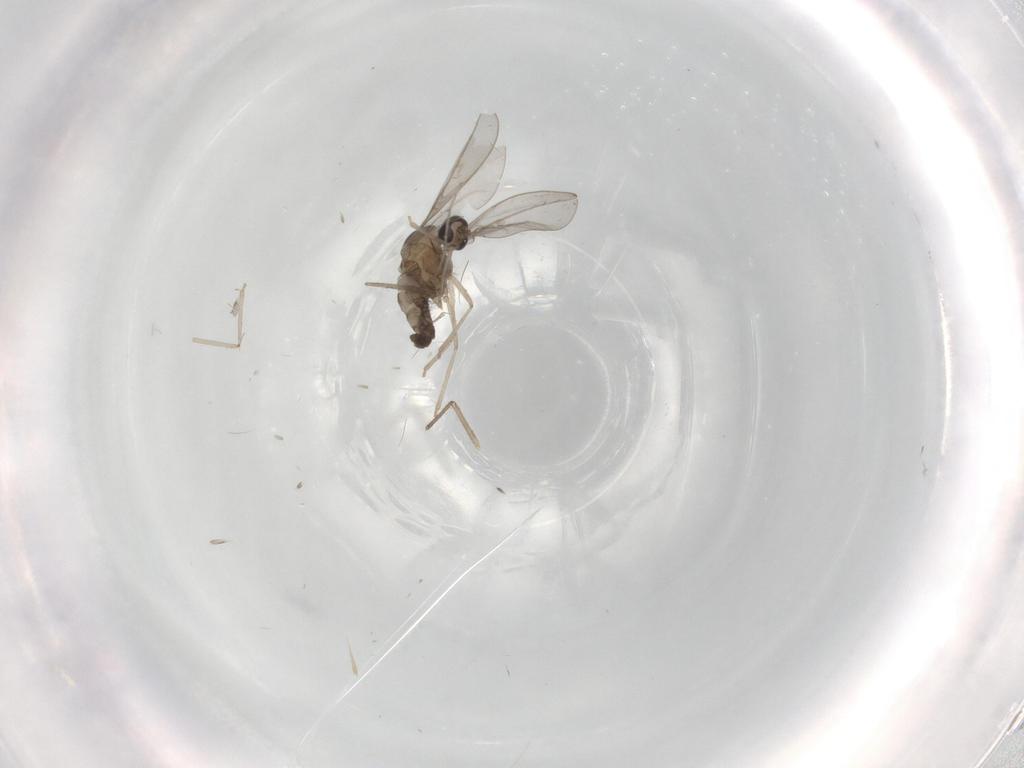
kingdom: Animalia
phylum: Arthropoda
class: Insecta
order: Diptera
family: Cecidomyiidae
